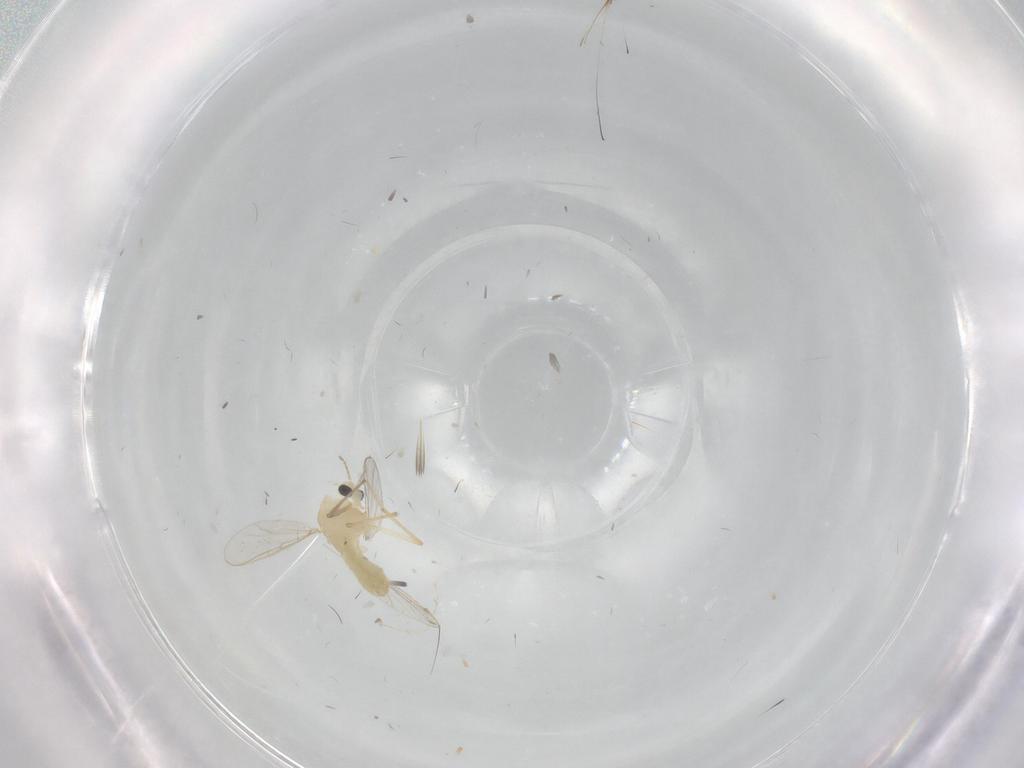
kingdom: Animalia
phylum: Arthropoda
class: Insecta
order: Diptera
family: Chironomidae
